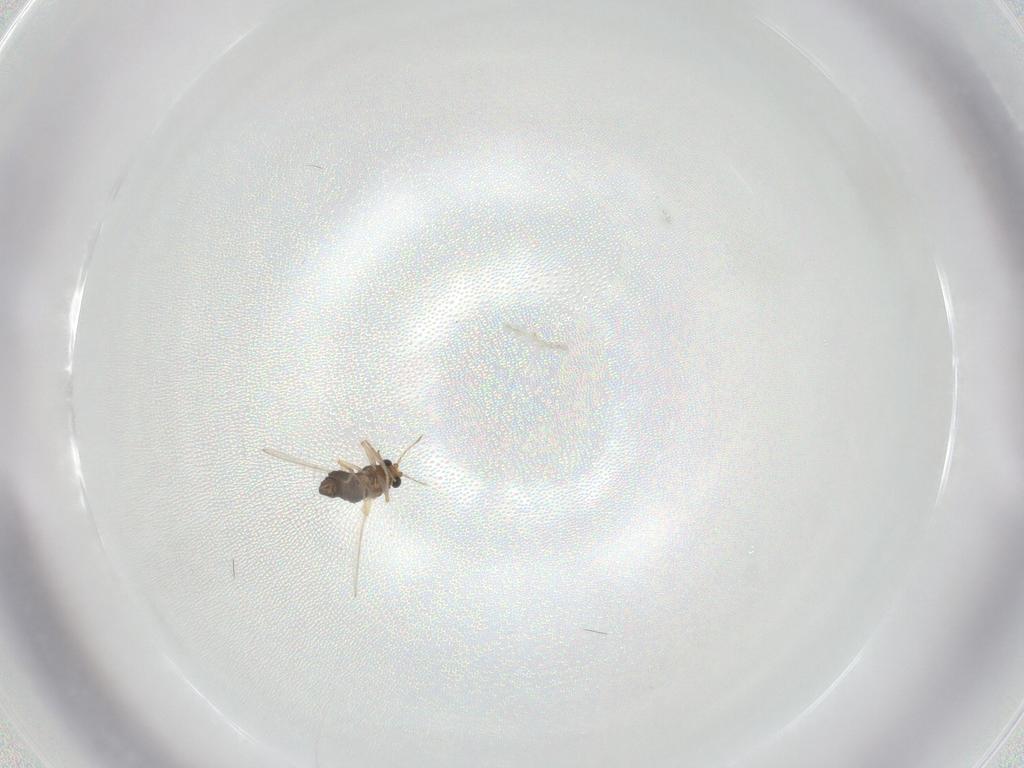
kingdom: Animalia
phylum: Arthropoda
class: Insecta
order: Diptera
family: Chironomidae
